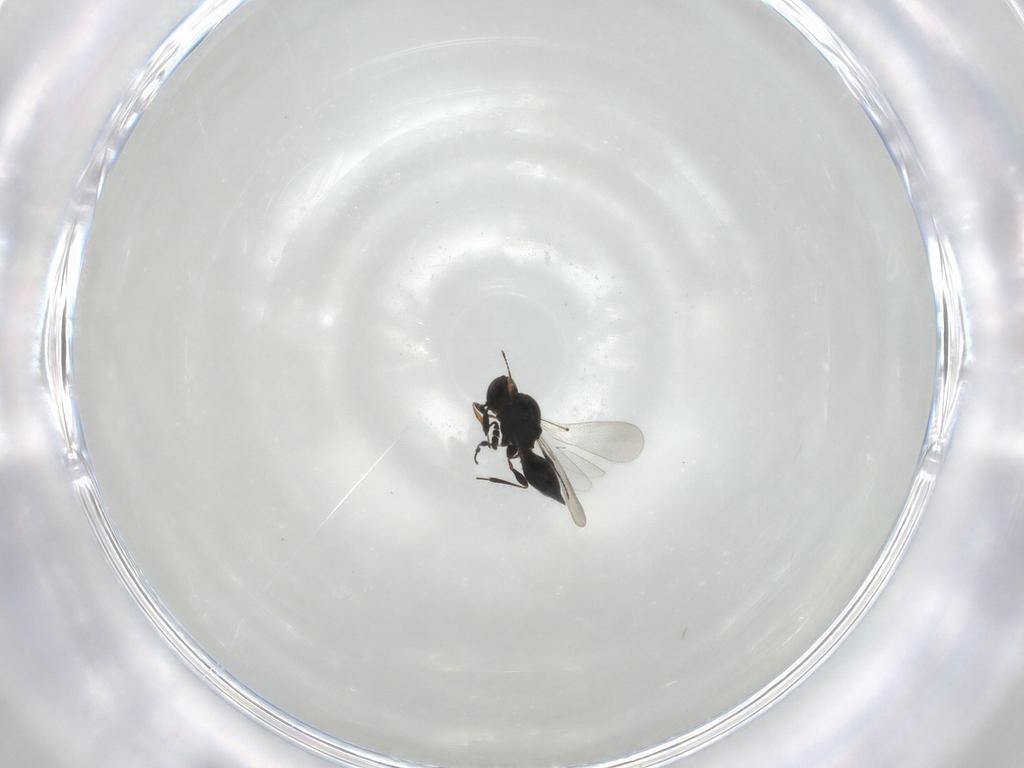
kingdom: Animalia
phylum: Arthropoda
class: Insecta
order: Hymenoptera
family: Platygastridae
